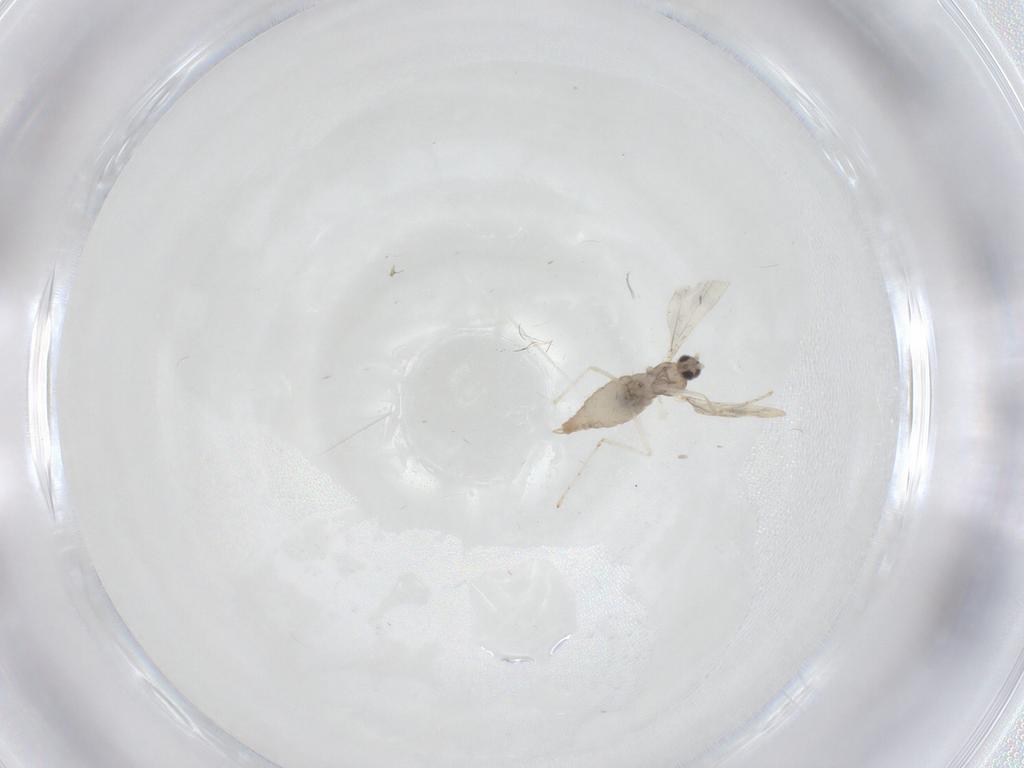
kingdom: Animalia
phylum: Arthropoda
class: Insecta
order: Diptera
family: Cecidomyiidae
